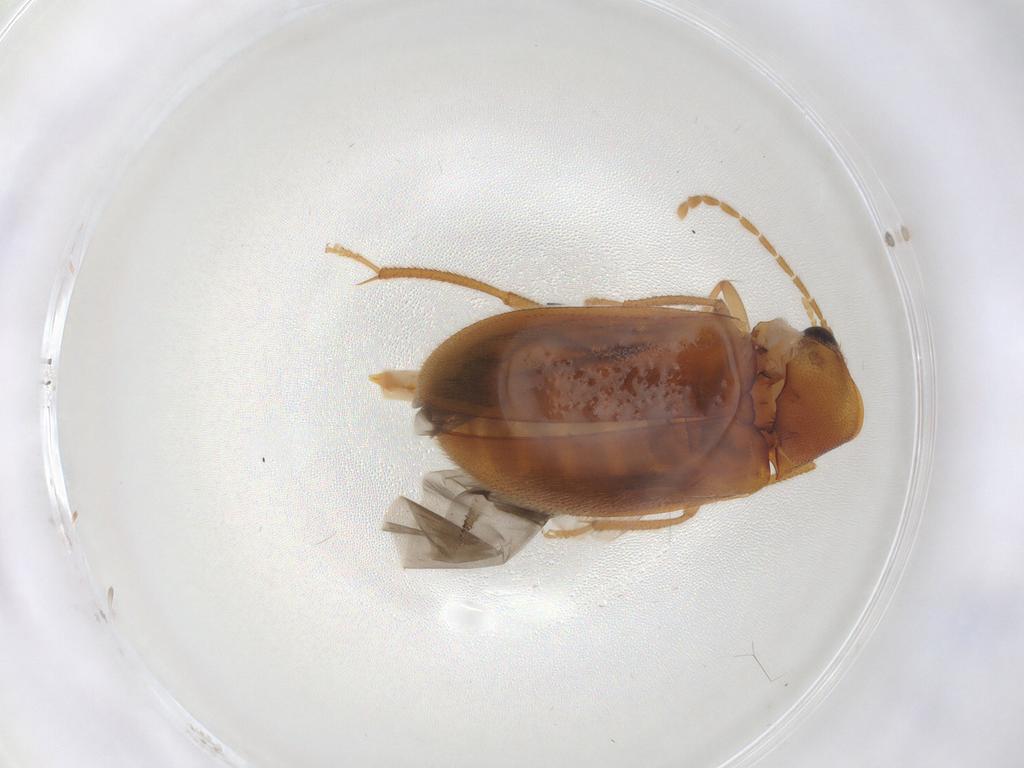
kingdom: Animalia
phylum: Arthropoda
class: Insecta
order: Coleoptera
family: Ptilodactylidae
